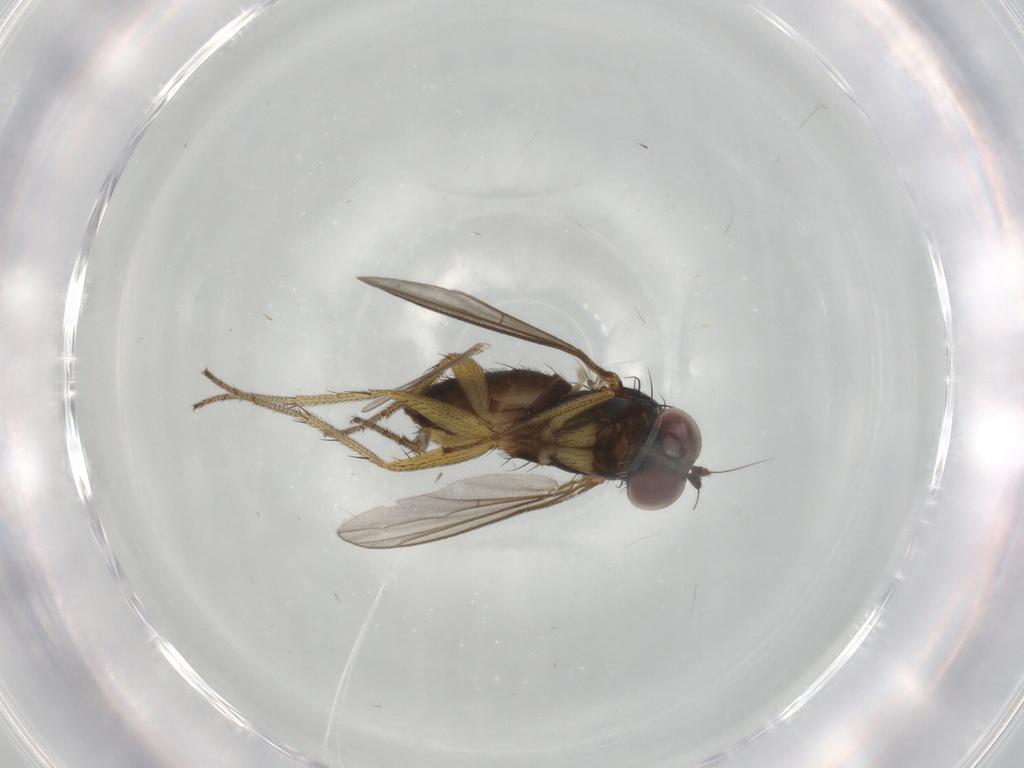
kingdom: Animalia
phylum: Arthropoda
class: Insecta
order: Diptera
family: Dolichopodidae
